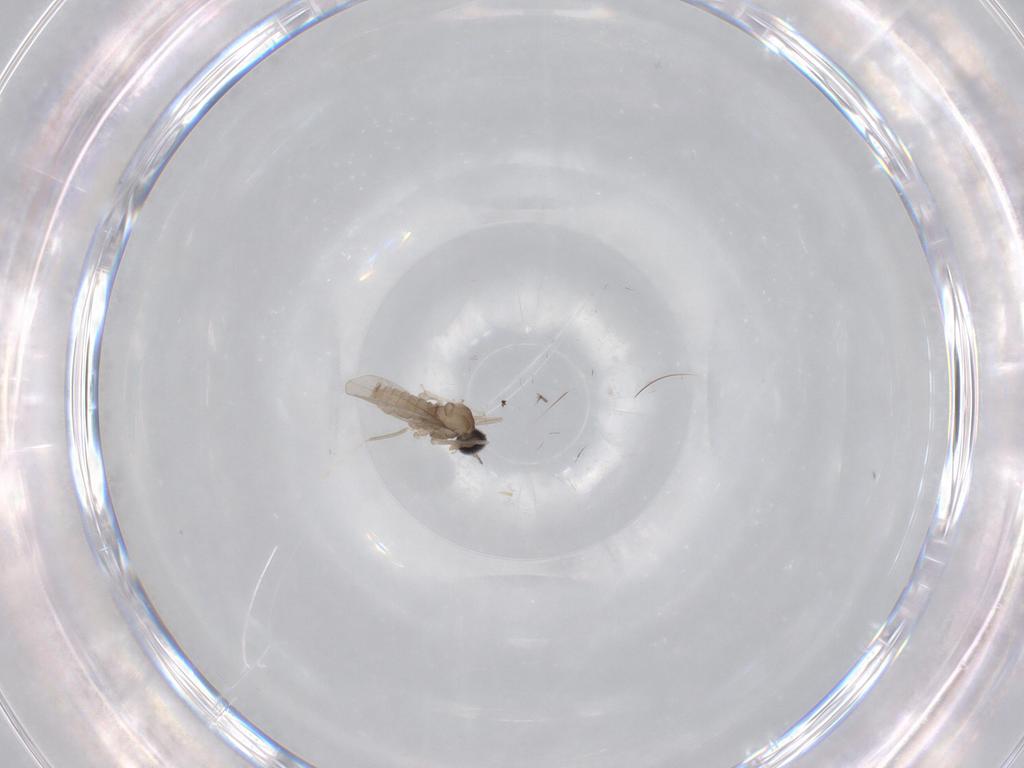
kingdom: Animalia
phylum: Arthropoda
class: Insecta
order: Diptera
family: Cecidomyiidae
